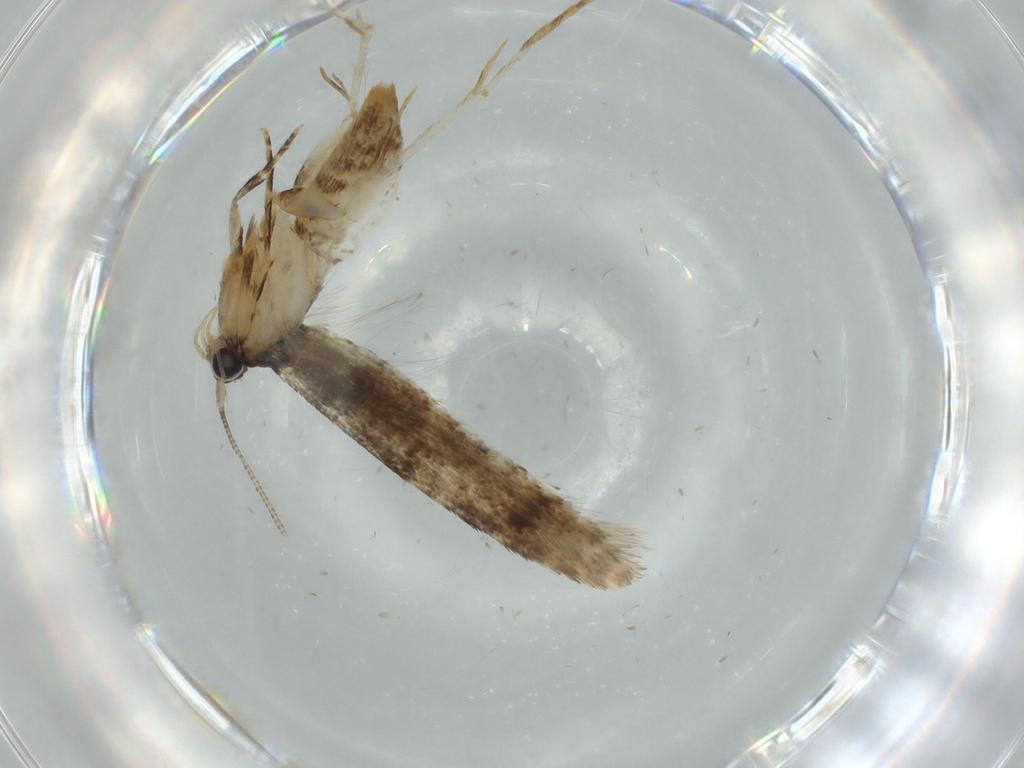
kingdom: Animalia
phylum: Arthropoda
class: Insecta
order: Lepidoptera
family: Tineidae
